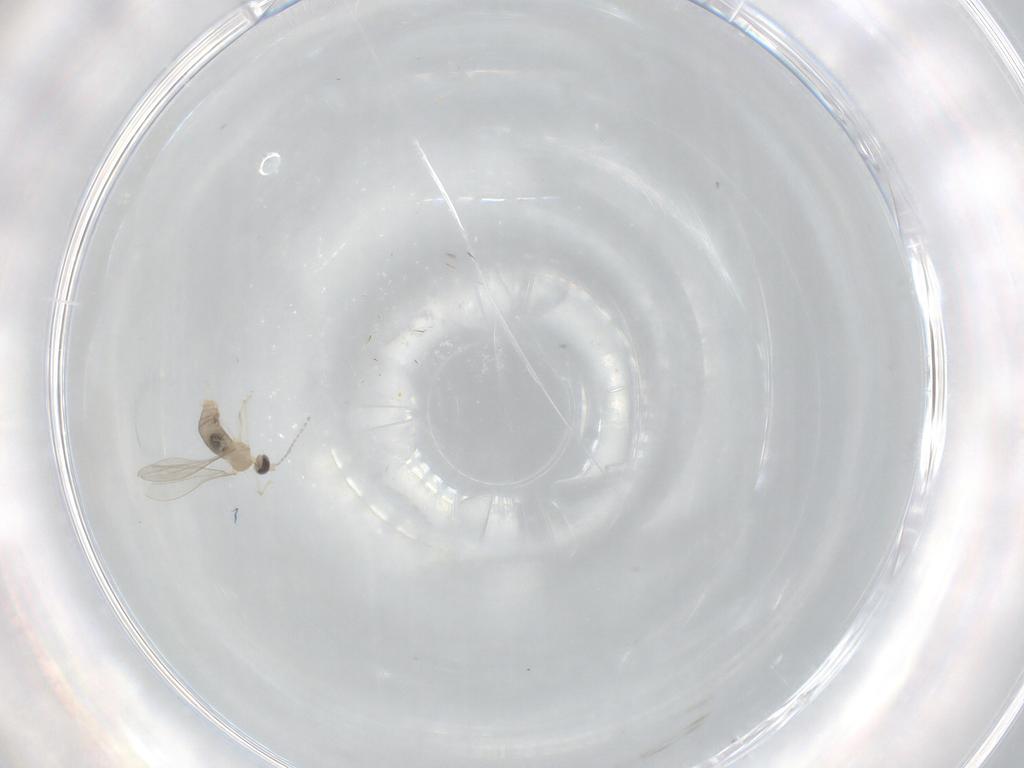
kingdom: Animalia
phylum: Arthropoda
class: Insecta
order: Diptera
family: Cecidomyiidae
